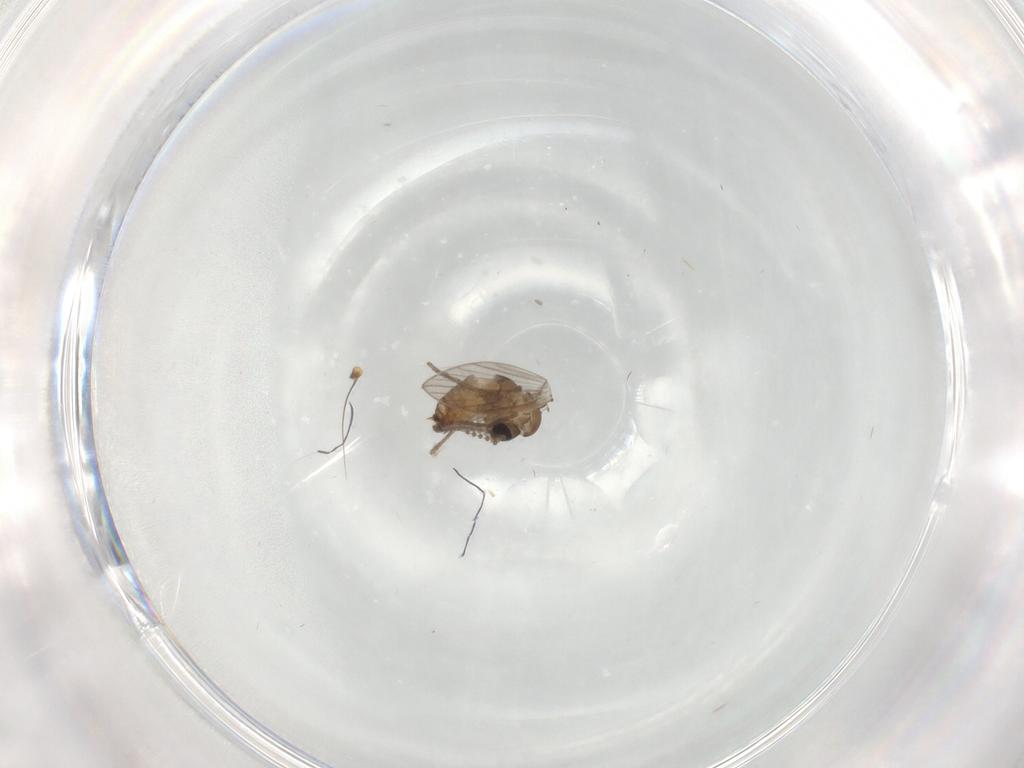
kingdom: Animalia
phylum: Arthropoda
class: Insecta
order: Diptera
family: Psychodidae
